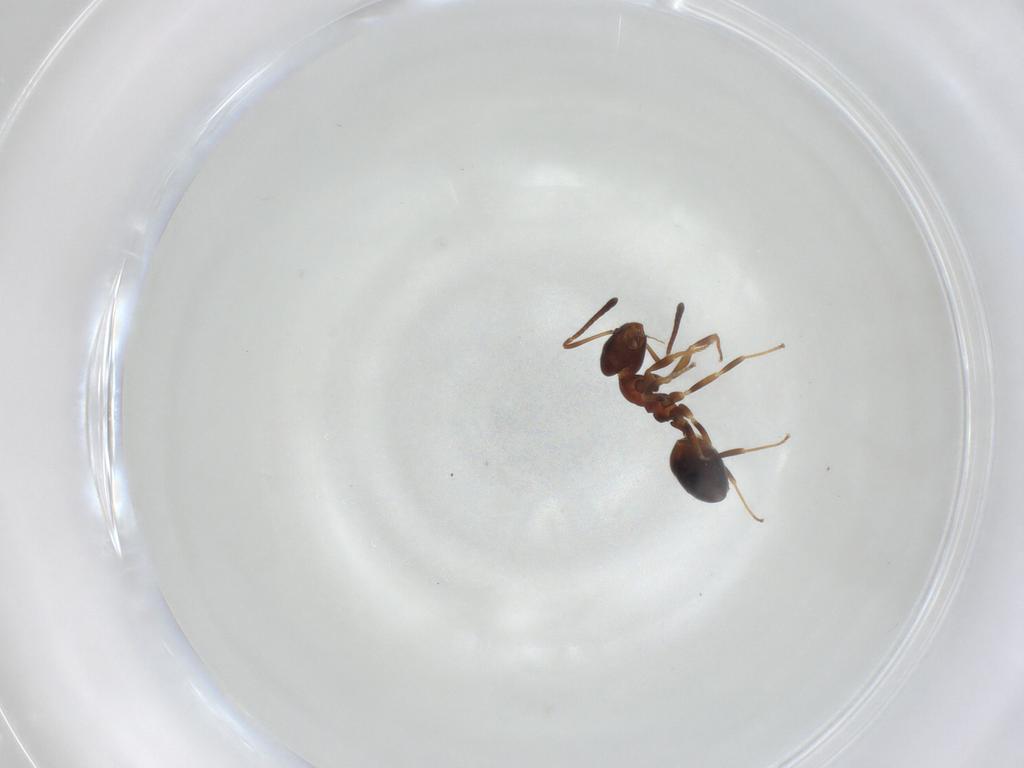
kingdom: Animalia
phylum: Arthropoda
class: Insecta
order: Hymenoptera
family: Formicidae
